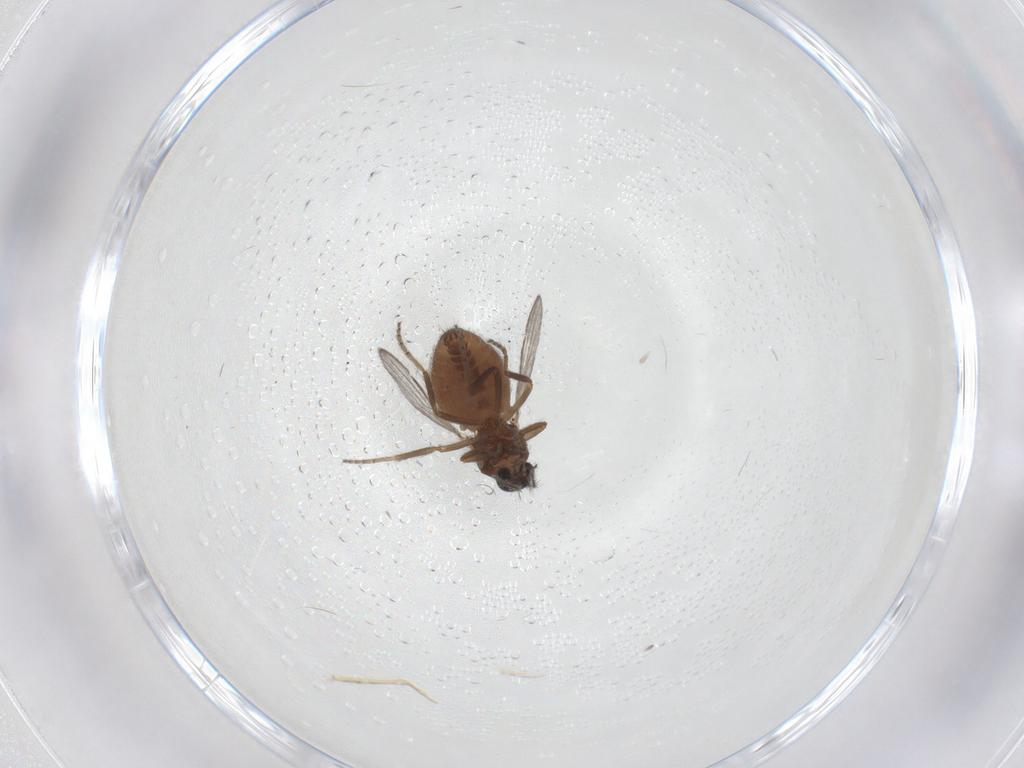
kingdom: Animalia
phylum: Arthropoda
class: Insecta
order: Diptera
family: Ceratopogonidae
